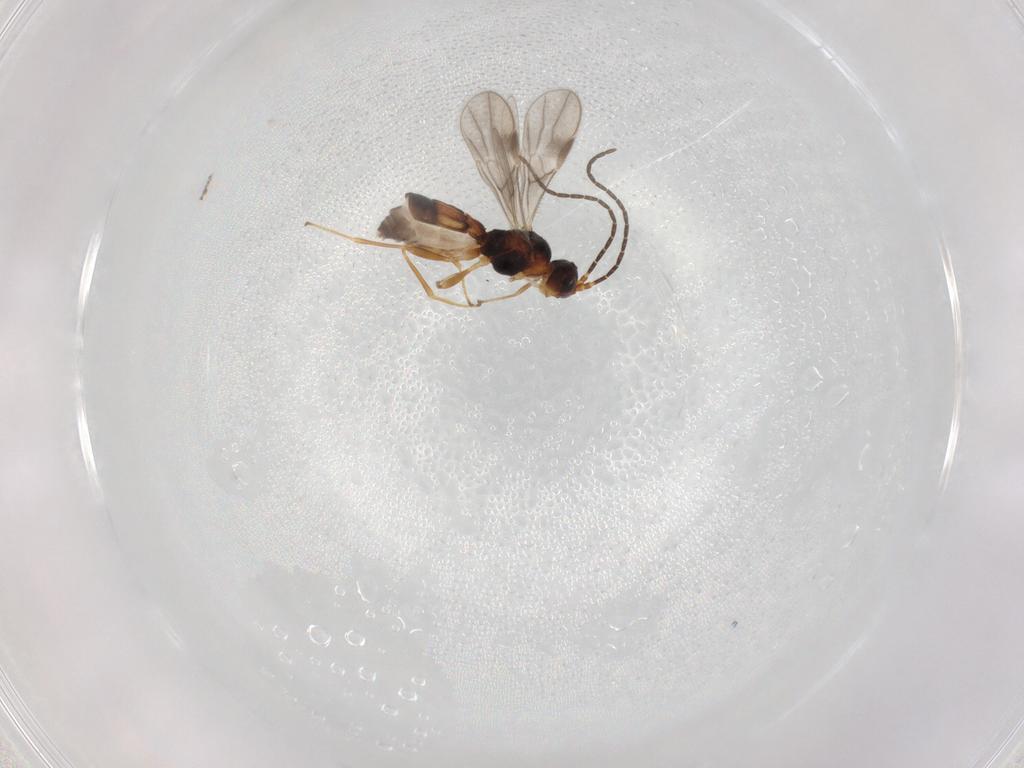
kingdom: Animalia
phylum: Arthropoda
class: Insecta
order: Hymenoptera
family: Braconidae
